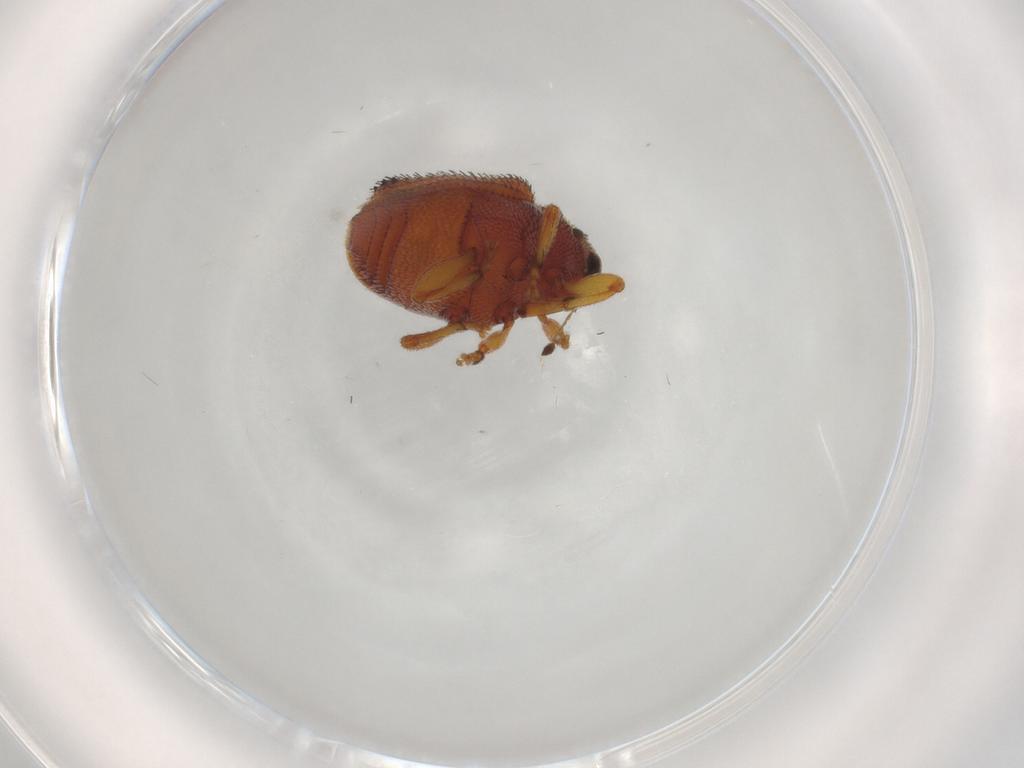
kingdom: Animalia
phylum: Arthropoda
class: Insecta
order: Coleoptera
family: Curculionidae
